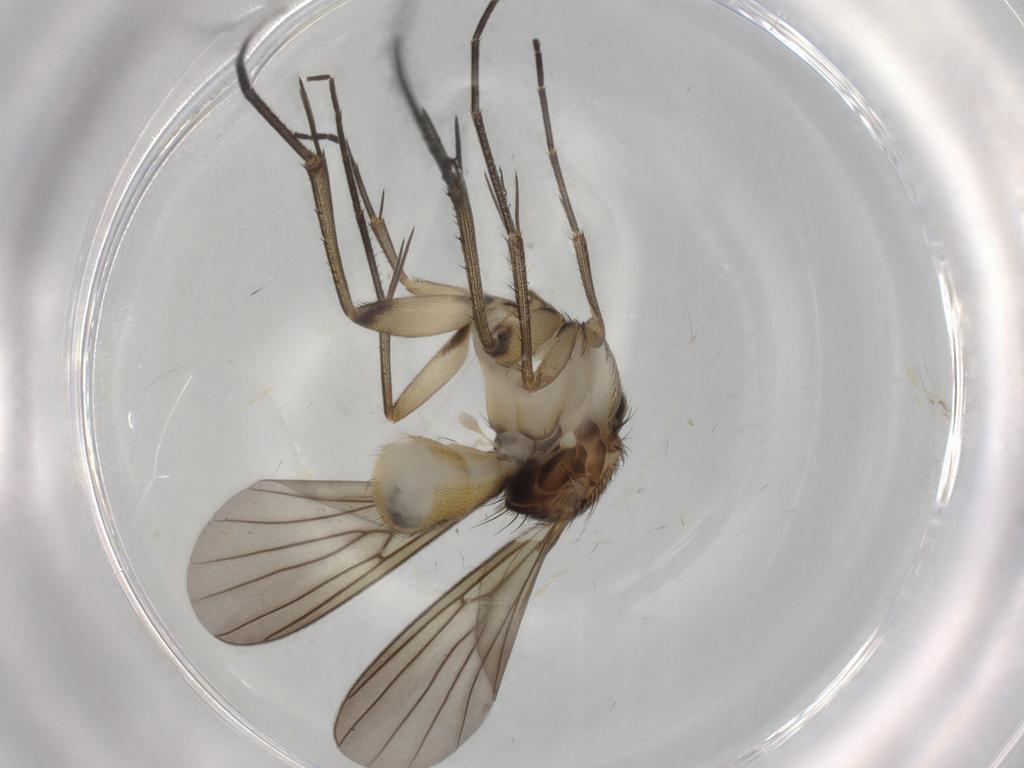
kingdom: Animalia
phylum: Arthropoda
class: Insecta
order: Diptera
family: Mycetophilidae
